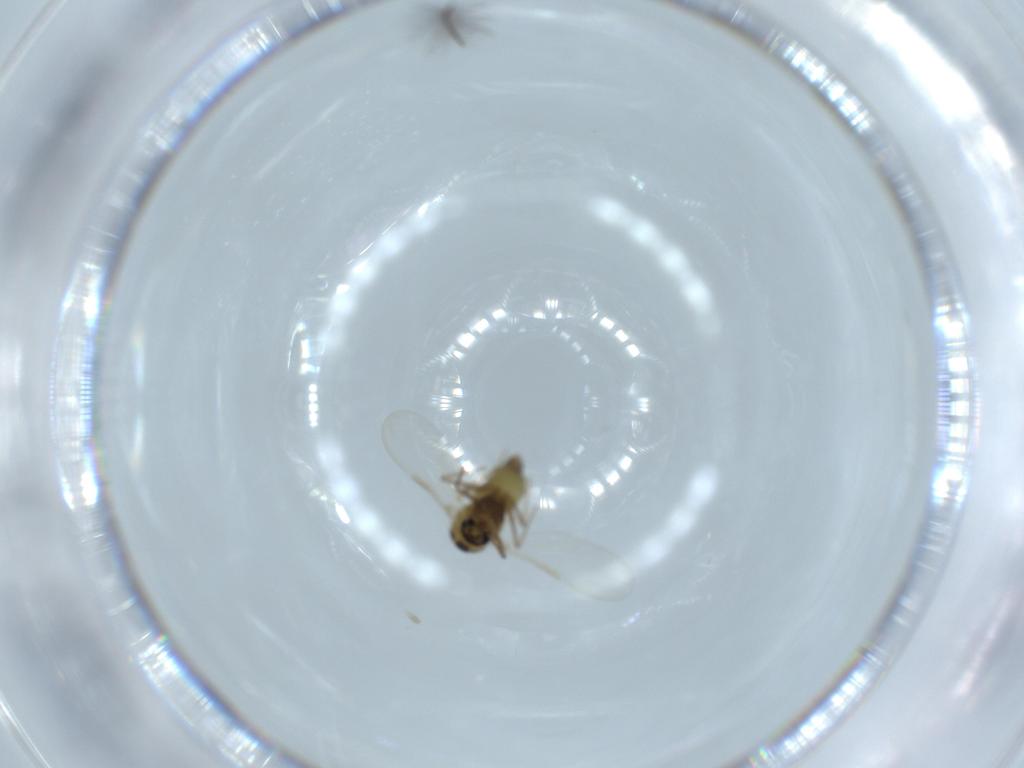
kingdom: Animalia
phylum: Arthropoda
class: Insecta
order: Diptera
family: Chironomidae
